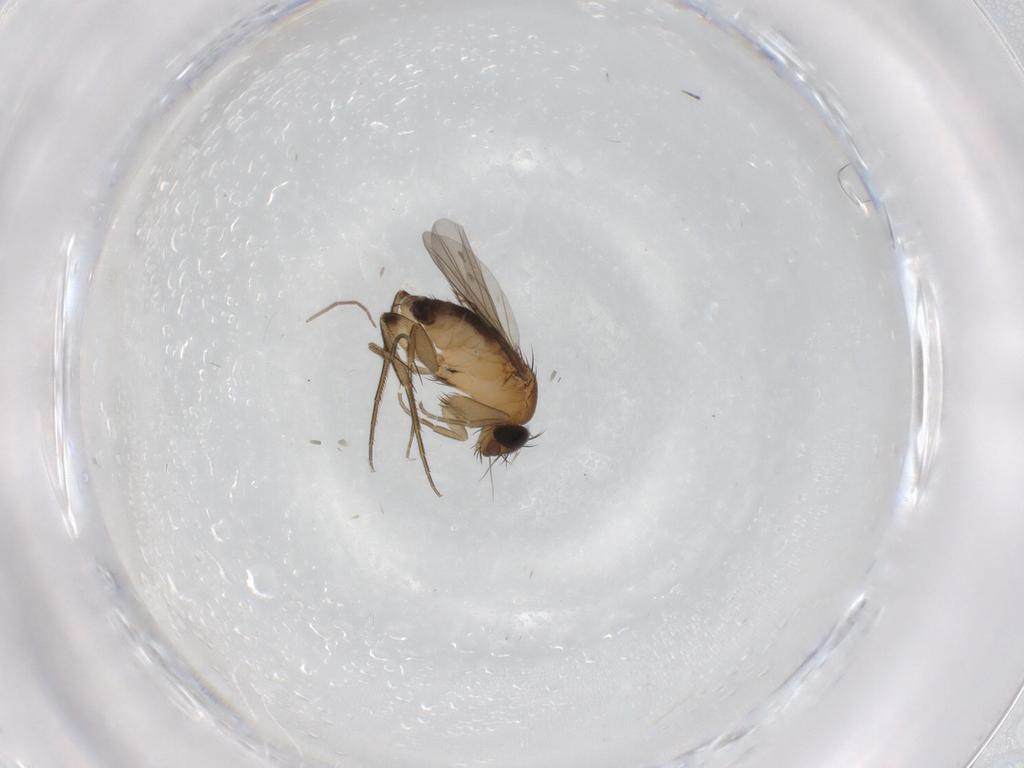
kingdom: Animalia
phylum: Arthropoda
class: Insecta
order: Diptera
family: Phoridae
